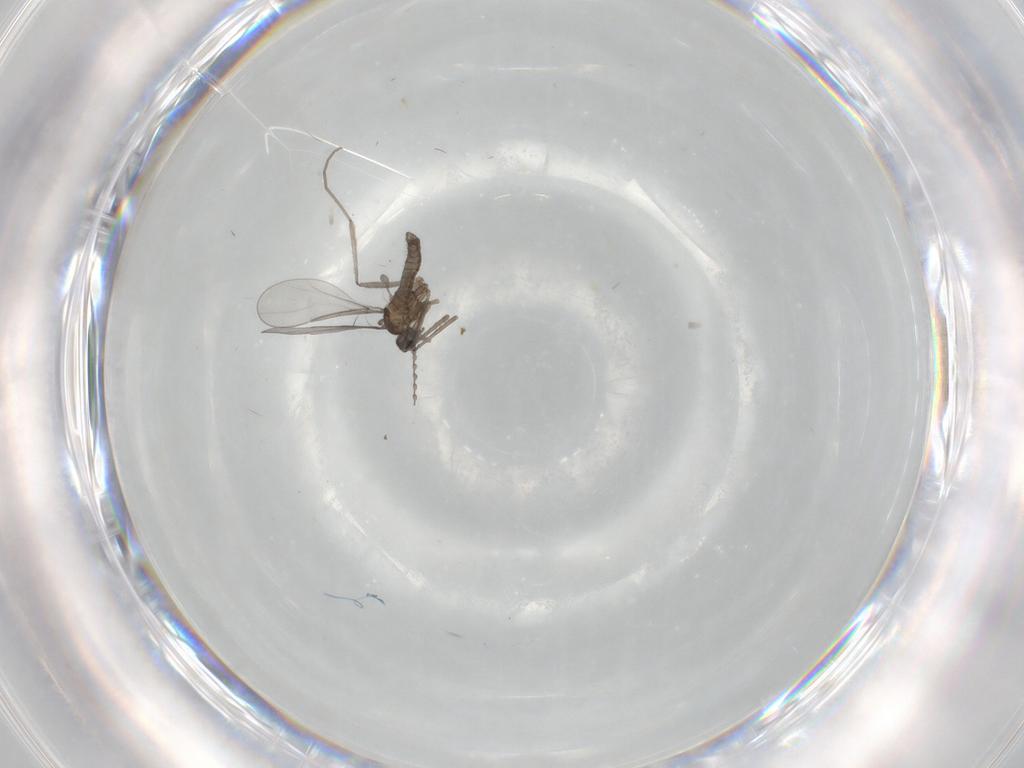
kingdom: Animalia
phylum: Arthropoda
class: Insecta
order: Diptera
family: Cecidomyiidae
